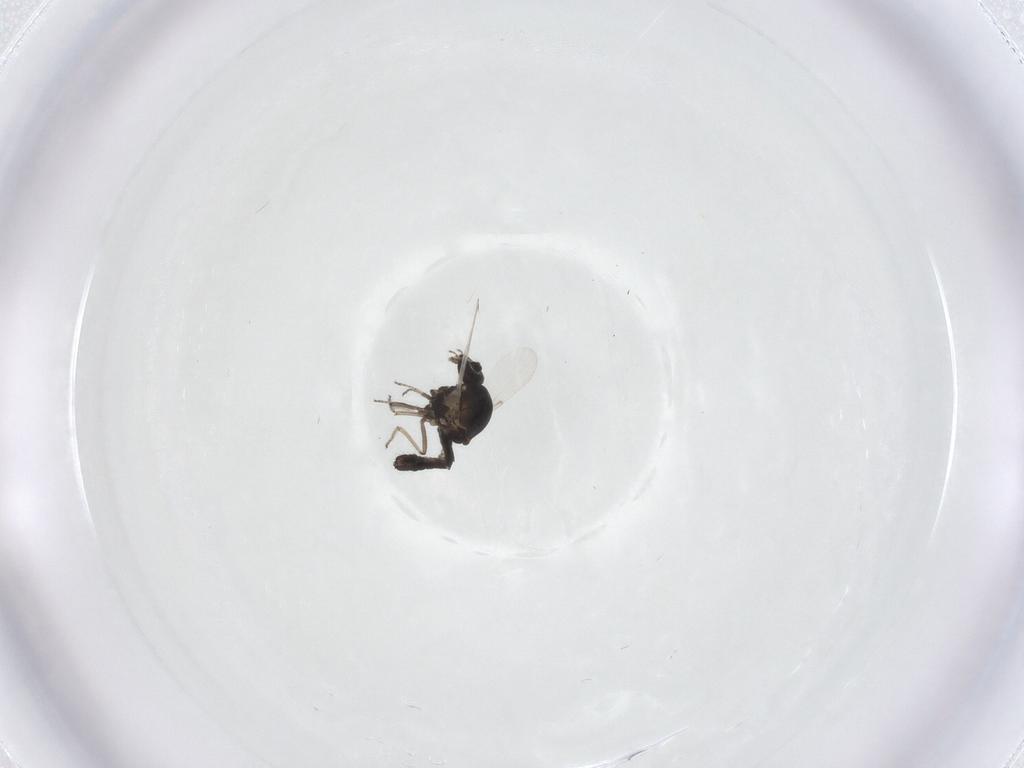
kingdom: Animalia
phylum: Arthropoda
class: Insecta
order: Diptera
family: Ceratopogonidae
